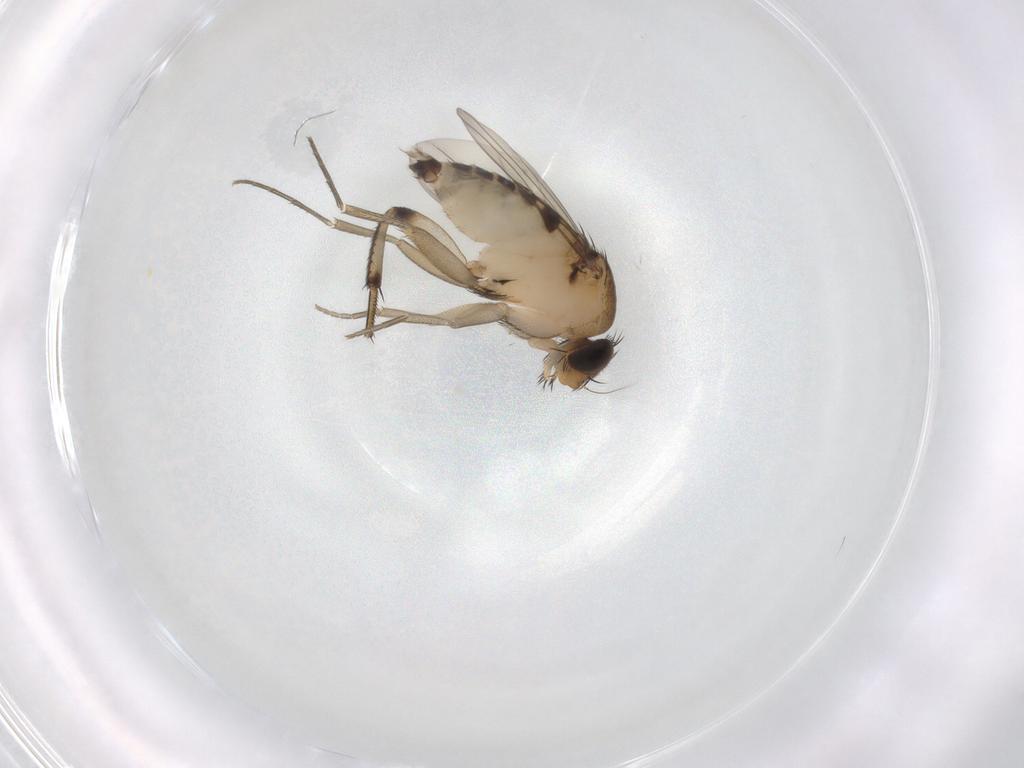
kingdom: Animalia
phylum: Arthropoda
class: Insecta
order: Diptera
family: Phoridae
